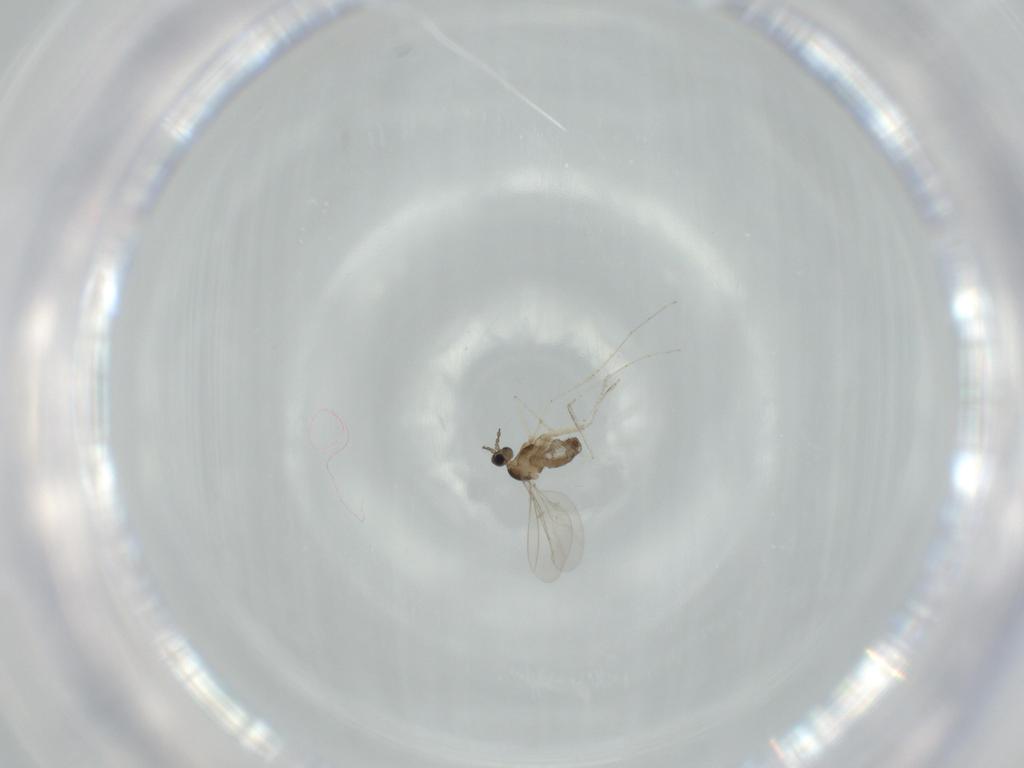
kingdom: Animalia
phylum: Arthropoda
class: Insecta
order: Diptera
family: Cecidomyiidae
